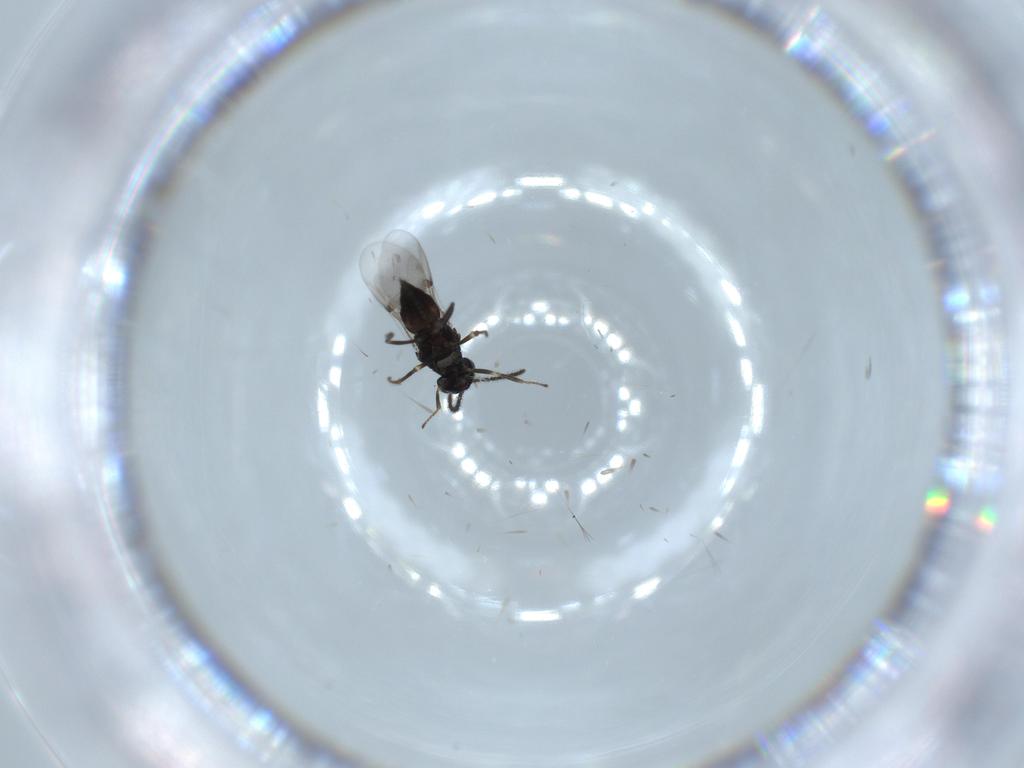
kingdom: Animalia
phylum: Arthropoda
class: Insecta
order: Hymenoptera
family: Encyrtidae
